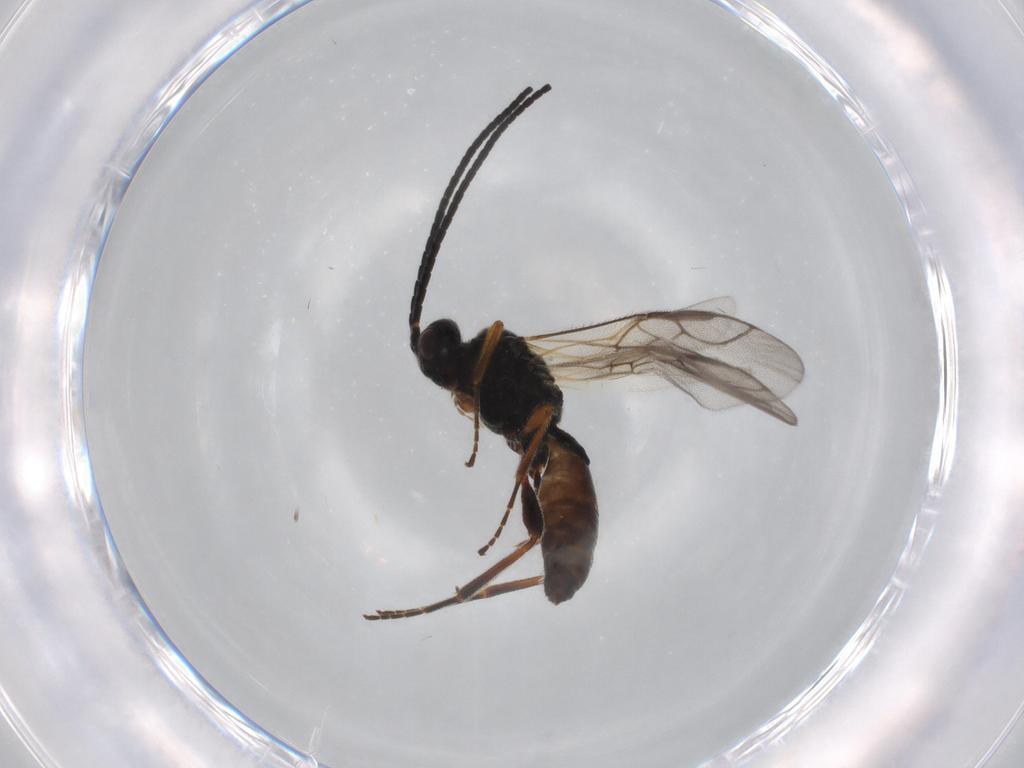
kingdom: Animalia
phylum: Arthropoda
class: Insecta
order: Hymenoptera
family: Braconidae
